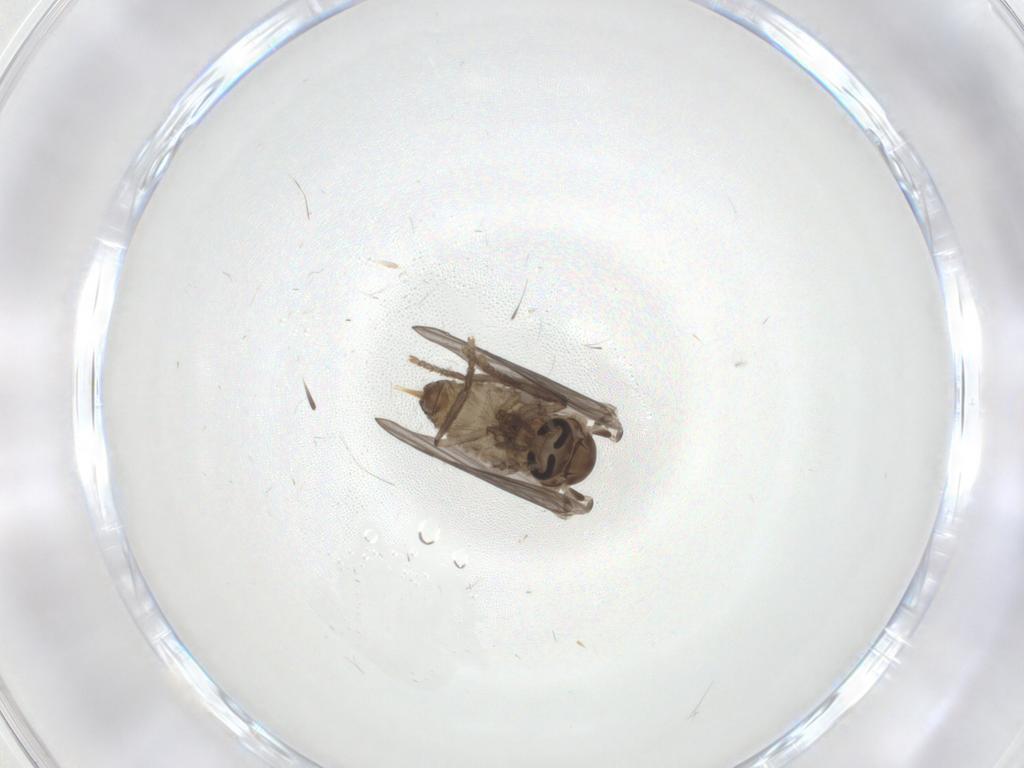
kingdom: Animalia
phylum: Arthropoda
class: Insecta
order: Diptera
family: Psychodidae
